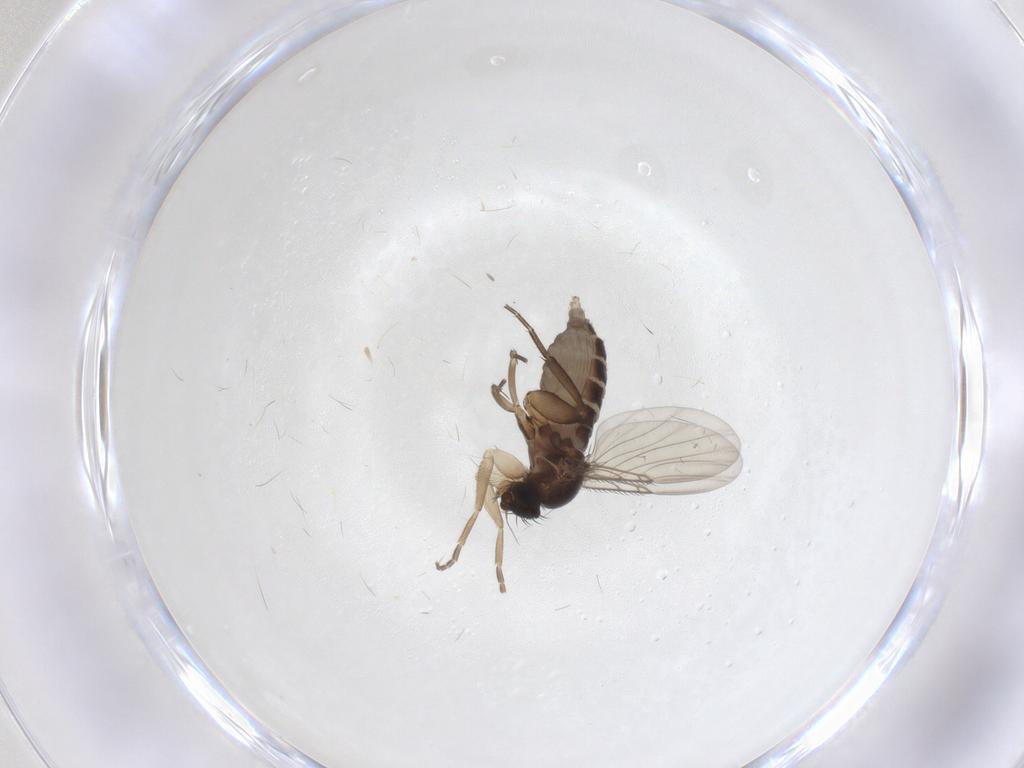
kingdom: Animalia
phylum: Arthropoda
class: Insecta
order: Diptera
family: Phoridae
